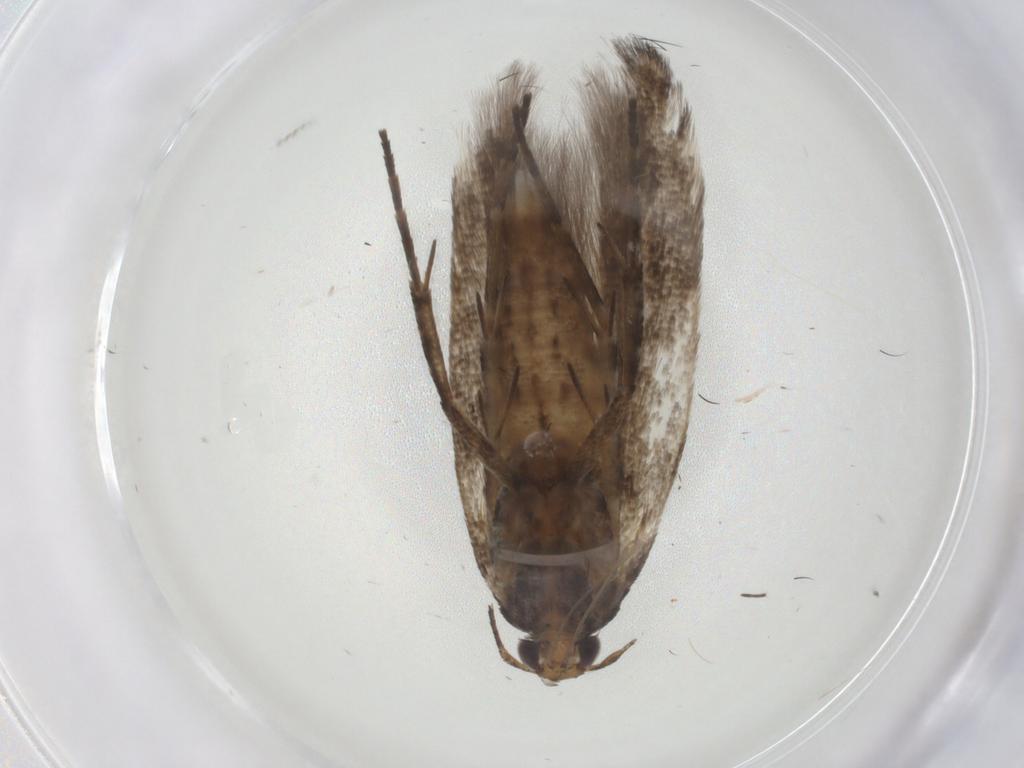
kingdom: Animalia
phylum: Arthropoda
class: Insecta
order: Lepidoptera
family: Gelechiidae
